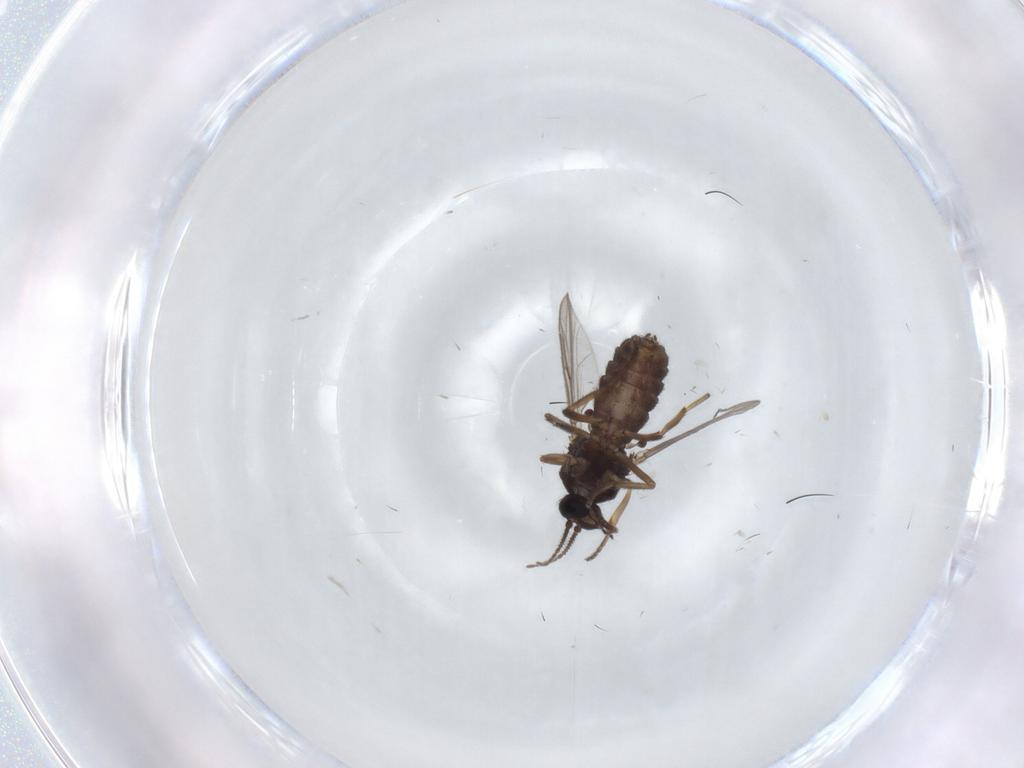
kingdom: Animalia
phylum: Arthropoda
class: Insecta
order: Diptera
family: Ceratopogonidae
